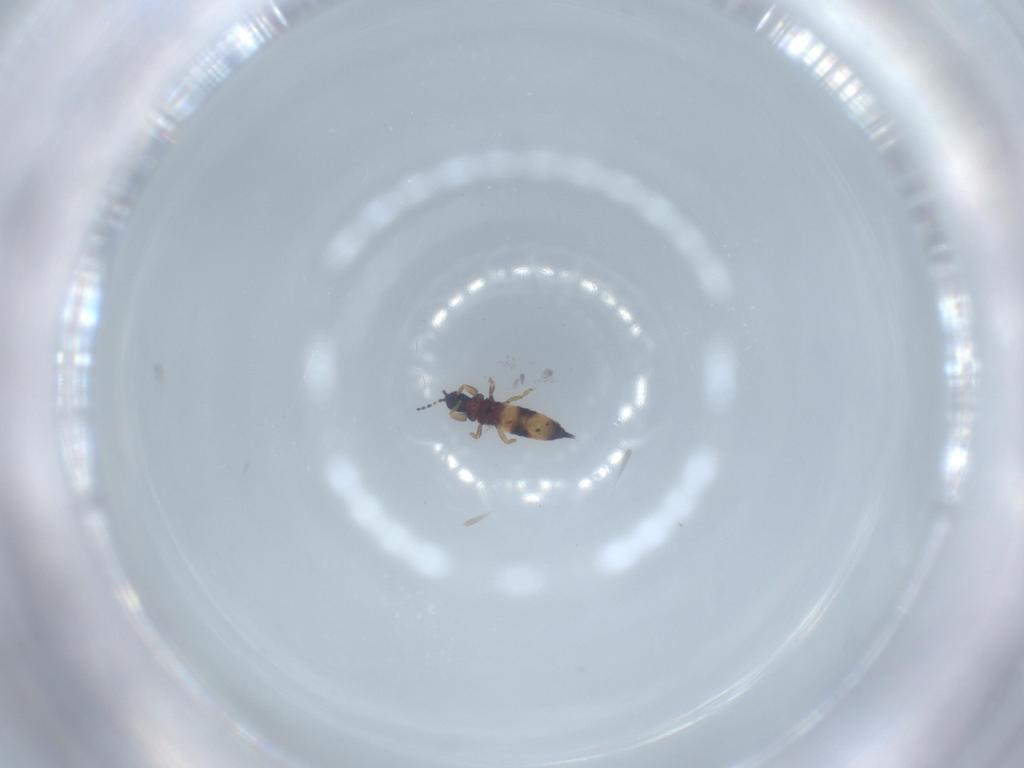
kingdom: Animalia
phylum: Arthropoda
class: Insecta
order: Thysanoptera
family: Phlaeothripidae
